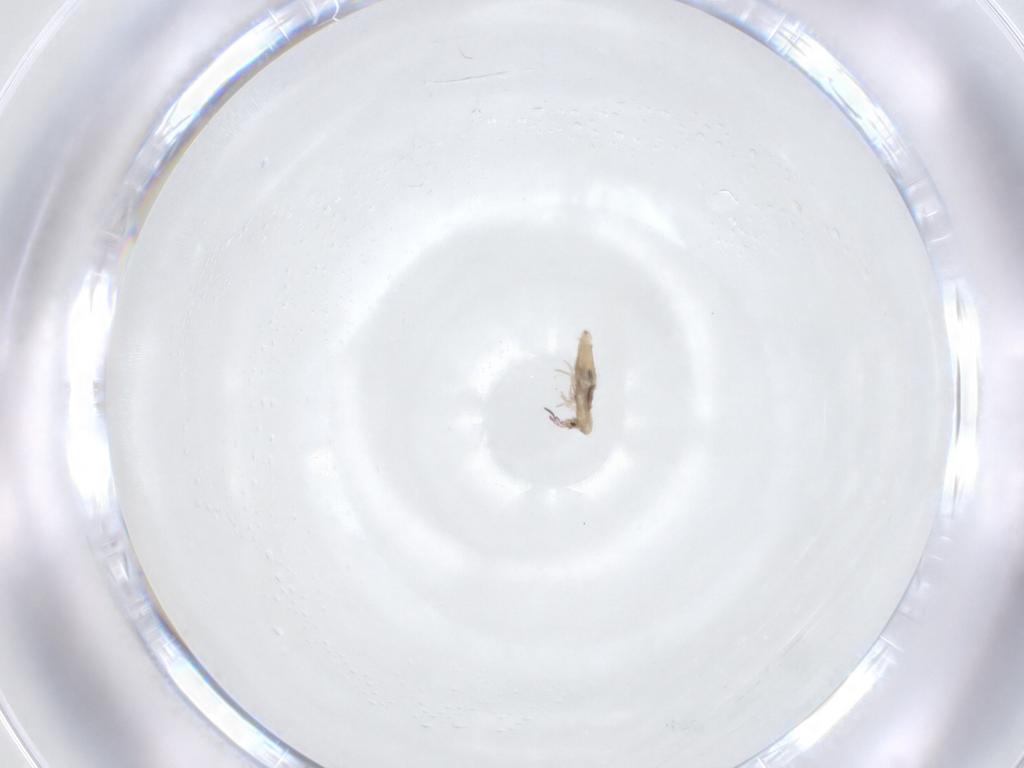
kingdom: Animalia
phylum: Arthropoda
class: Collembola
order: Entomobryomorpha
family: Entomobryidae
